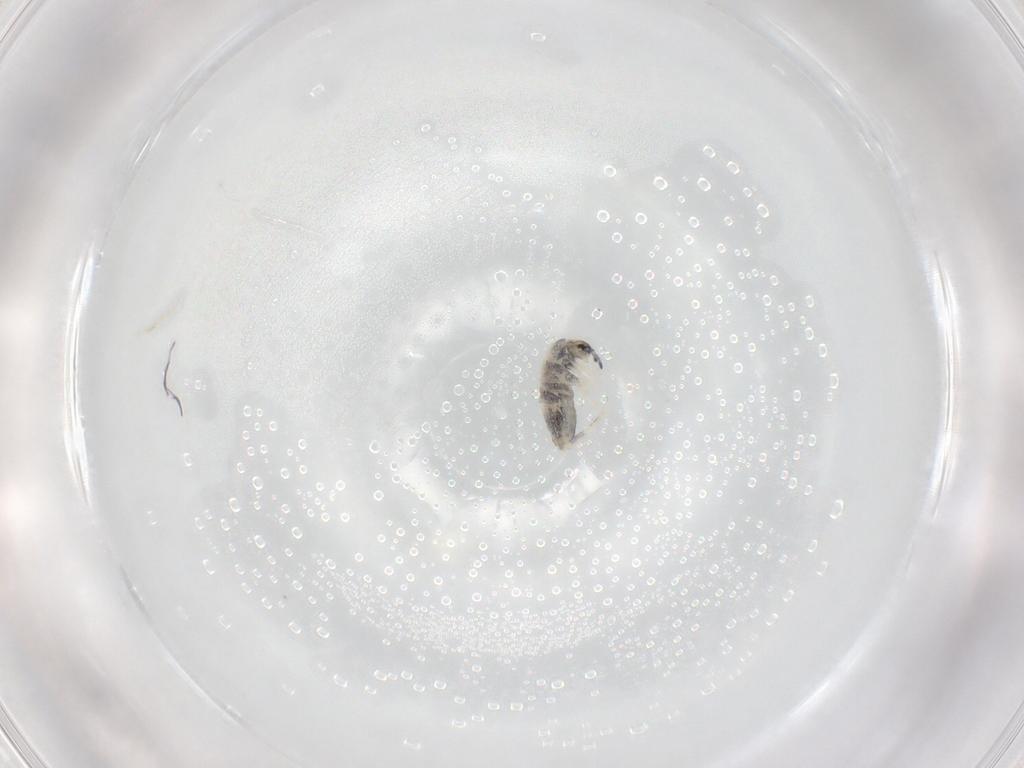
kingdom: Animalia
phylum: Arthropoda
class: Collembola
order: Entomobryomorpha
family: Entomobryidae
